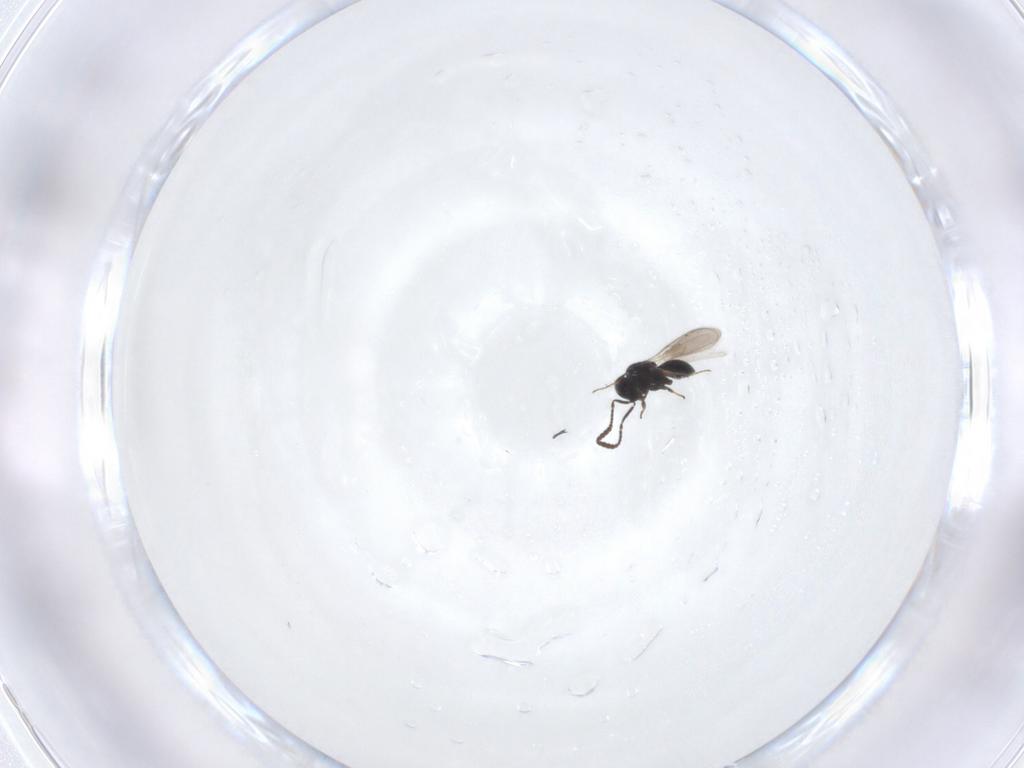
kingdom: Animalia
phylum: Arthropoda
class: Insecta
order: Hymenoptera
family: Scelionidae
